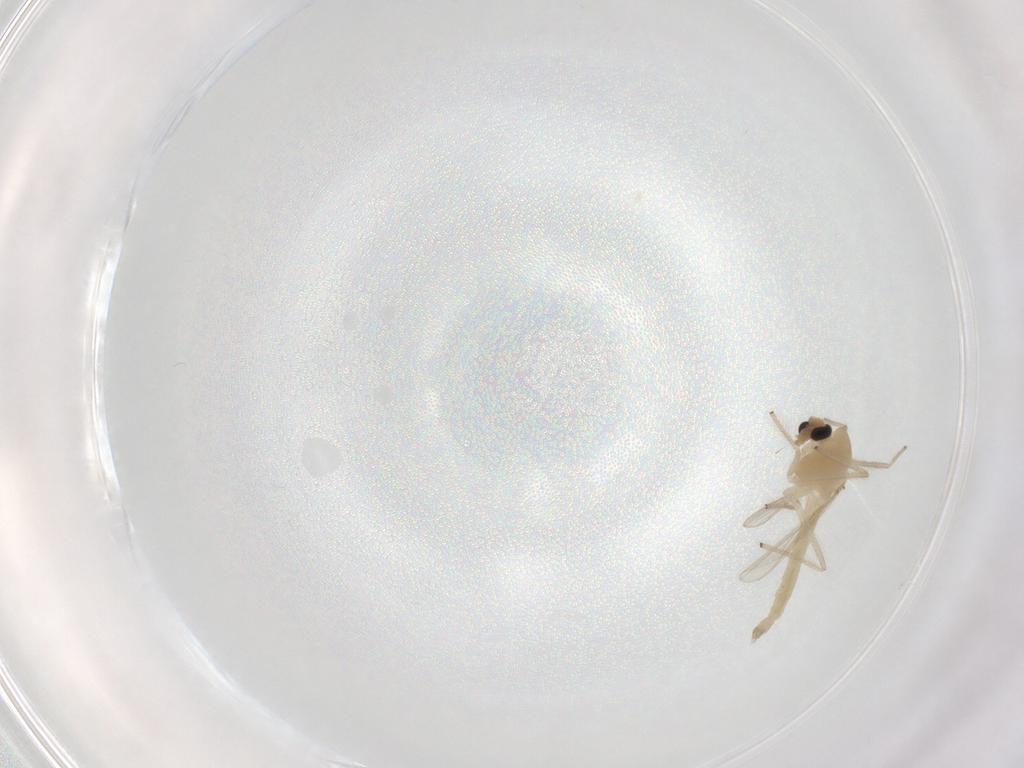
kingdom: Animalia
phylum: Arthropoda
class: Insecta
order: Diptera
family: Chironomidae
